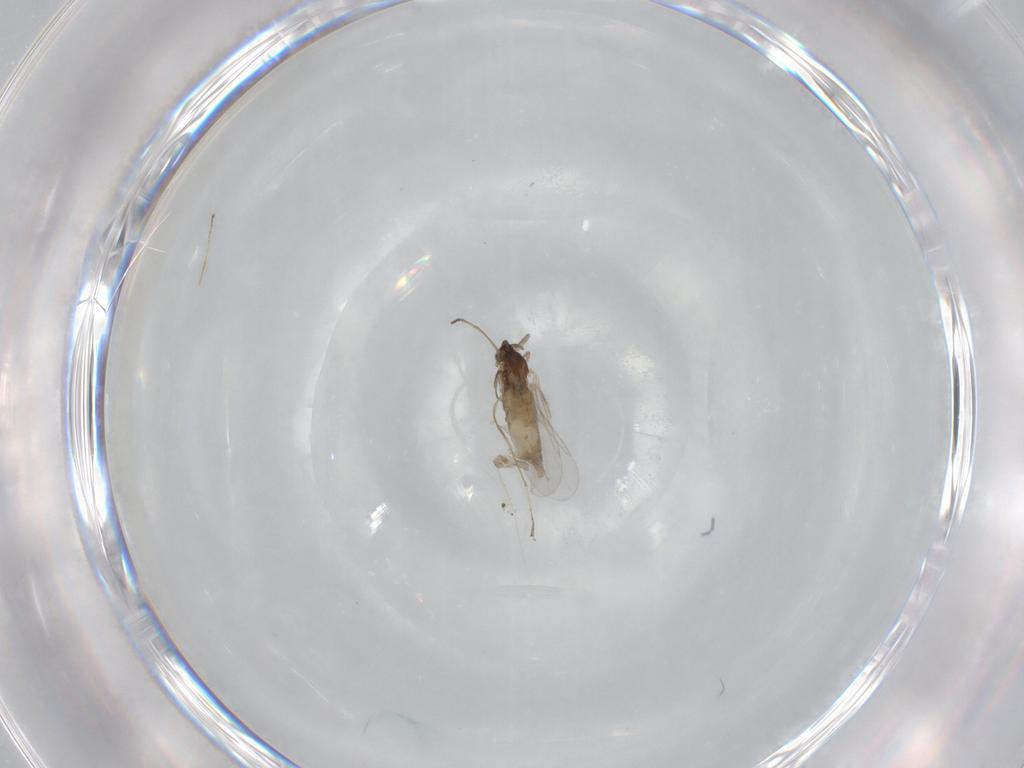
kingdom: Animalia
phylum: Arthropoda
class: Insecta
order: Diptera
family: Cecidomyiidae
